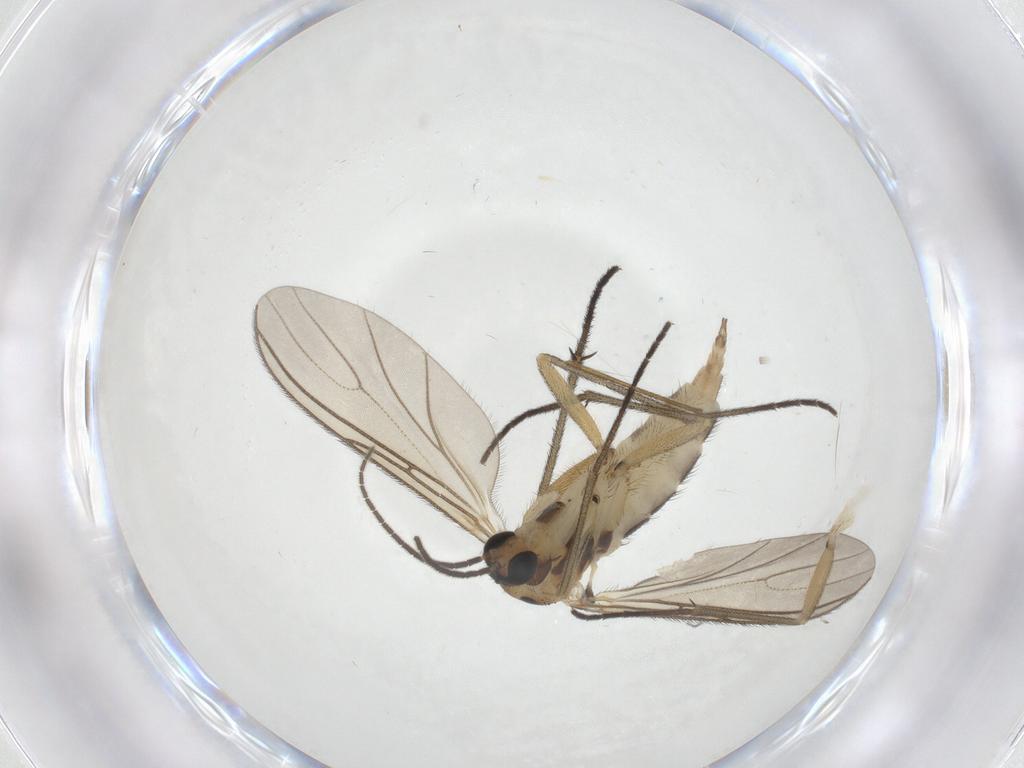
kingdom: Animalia
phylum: Arthropoda
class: Insecta
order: Diptera
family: Sciaridae
